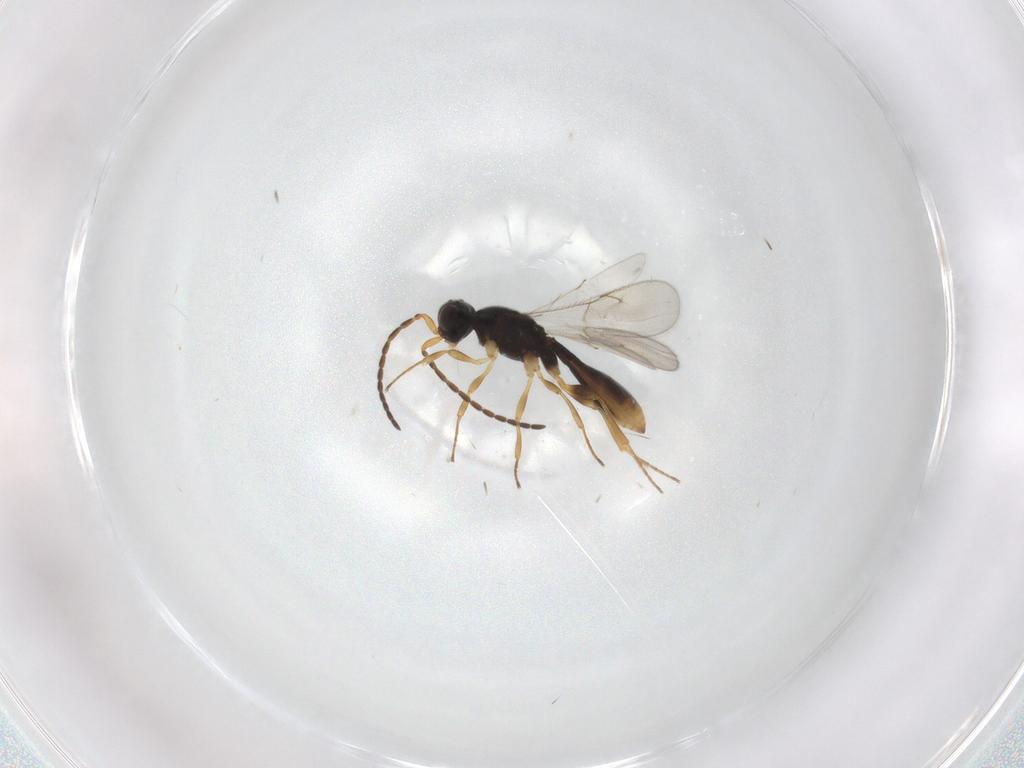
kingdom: Animalia
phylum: Arthropoda
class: Insecta
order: Hymenoptera
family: Scelionidae
